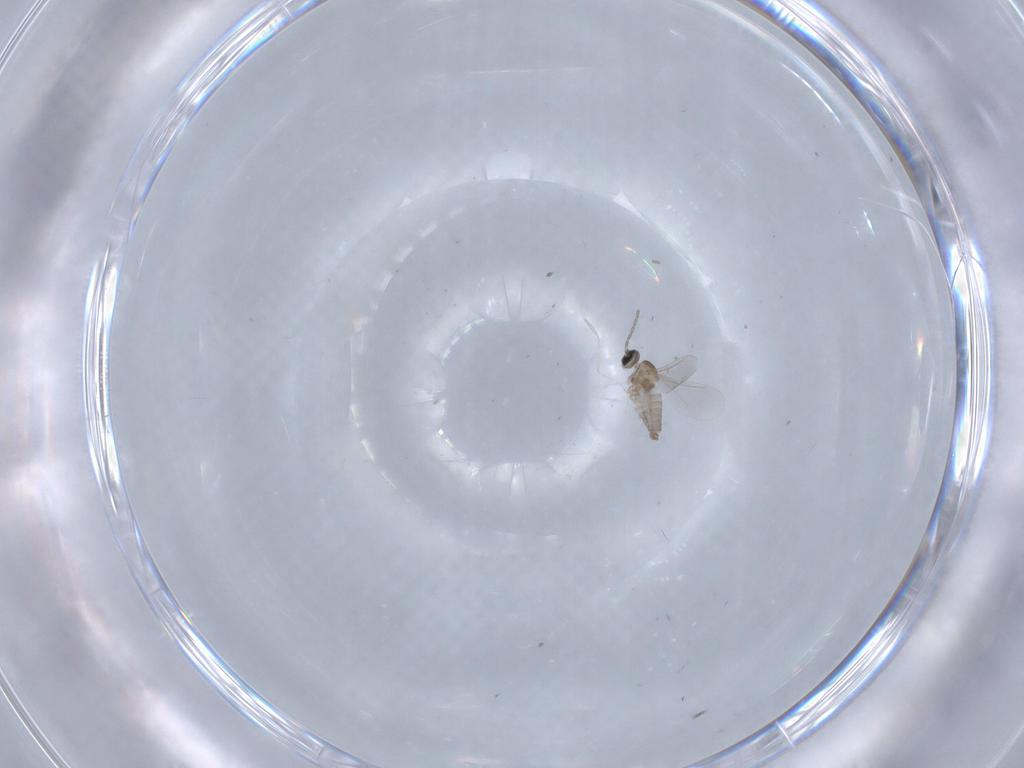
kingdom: Animalia
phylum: Arthropoda
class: Insecta
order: Diptera
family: Cecidomyiidae
